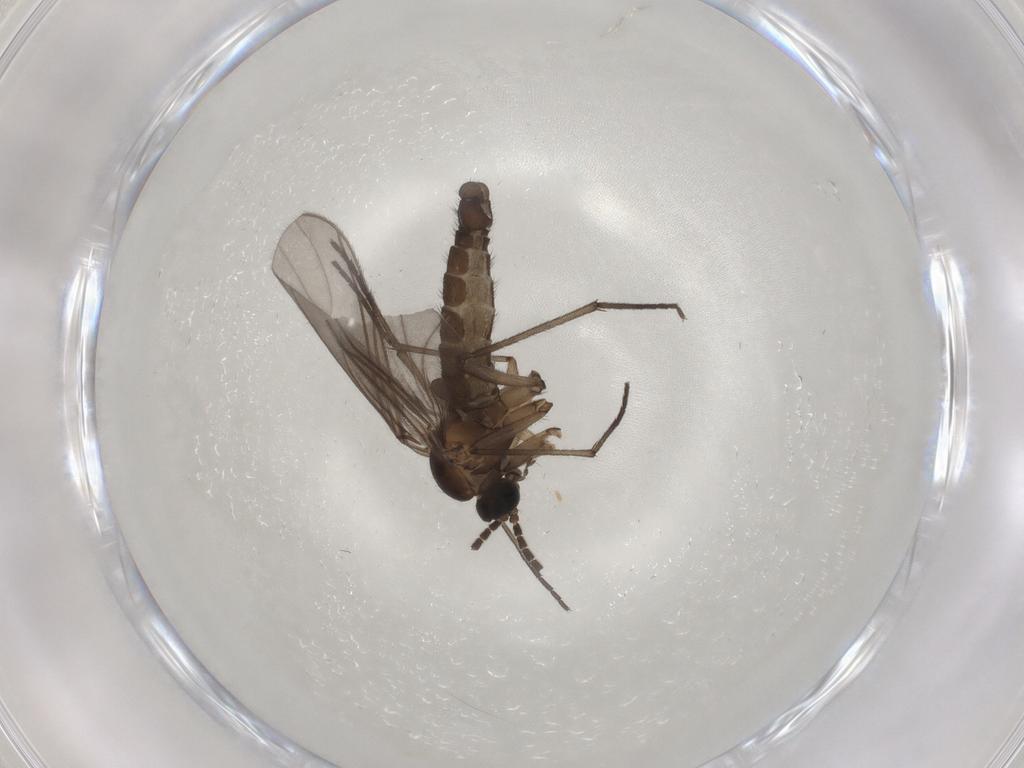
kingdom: Animalia
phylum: Arthropoda
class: Insecta
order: Diptera
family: Sciaridae
